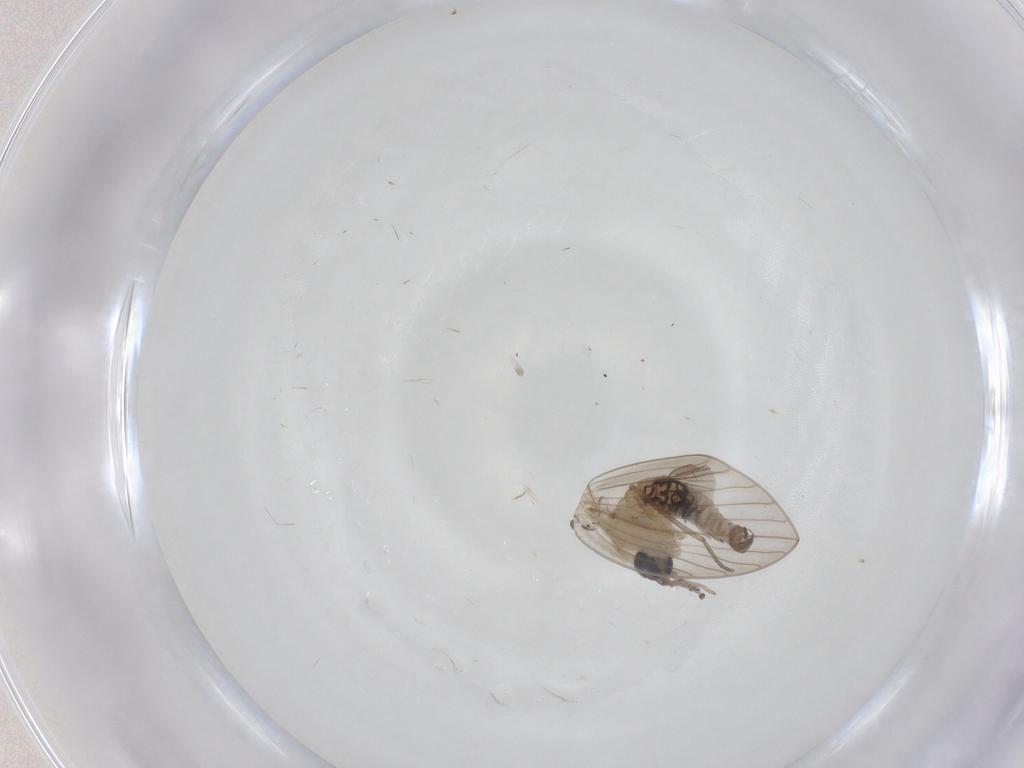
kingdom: Animalia
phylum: Arthropoda
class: Insecta
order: Diptera
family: Psychodidae
